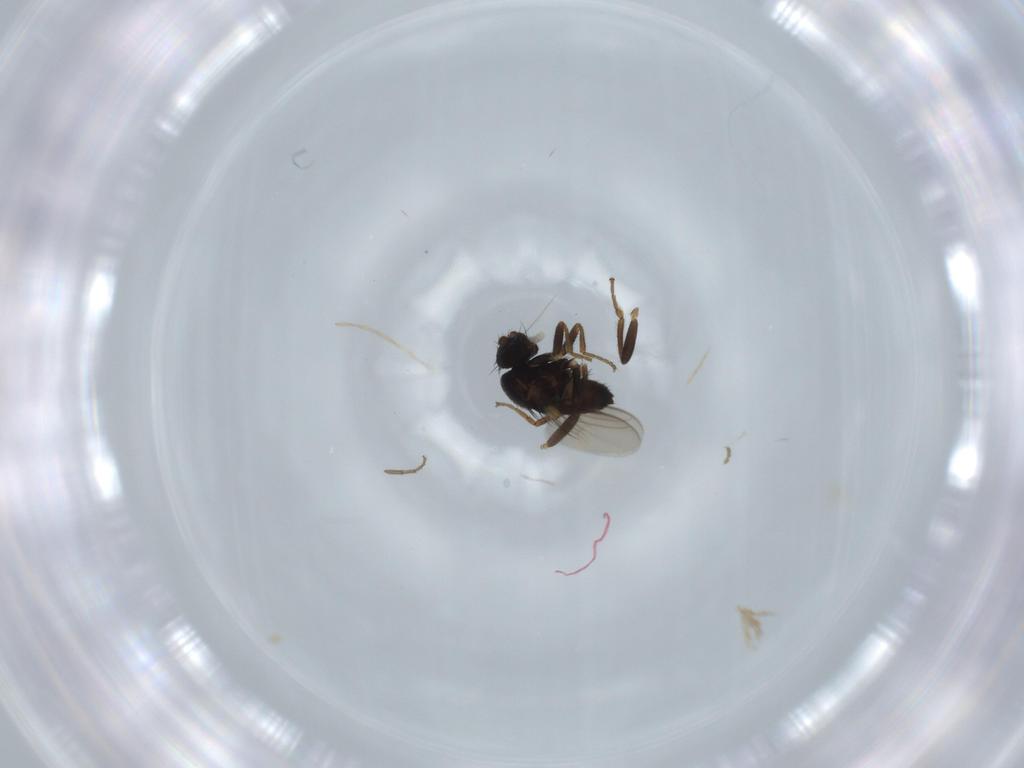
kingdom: Animalia
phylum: Arthropoda
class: Insecta
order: Diptera
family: Sphaeroceridae
